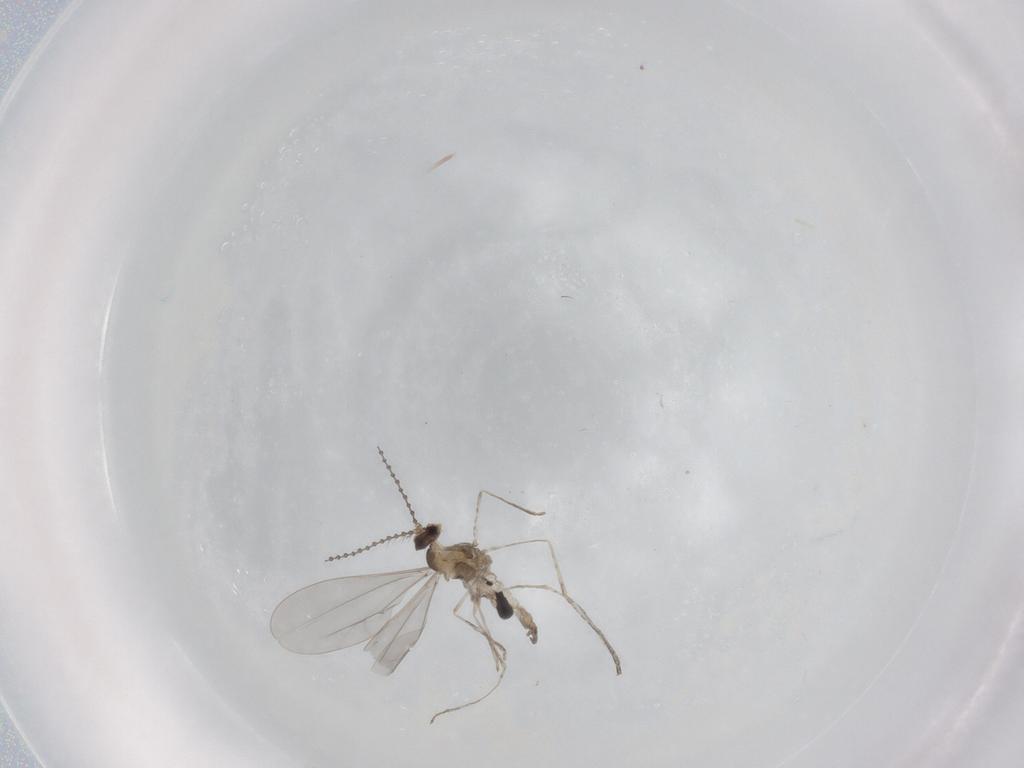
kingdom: Animalia
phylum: Arthropoda
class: Insecta
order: Diptera
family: Cecidomyiidae
